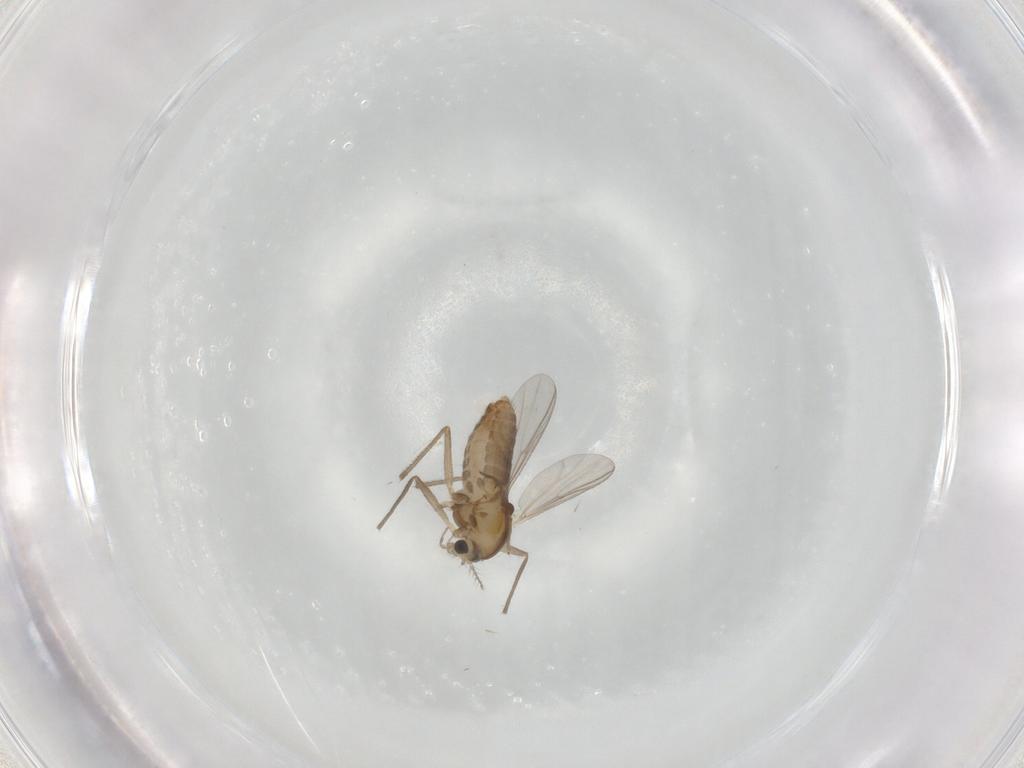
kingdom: Animalia
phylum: Arthropoda
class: Insecta
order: Diptera
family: Chironomidae
